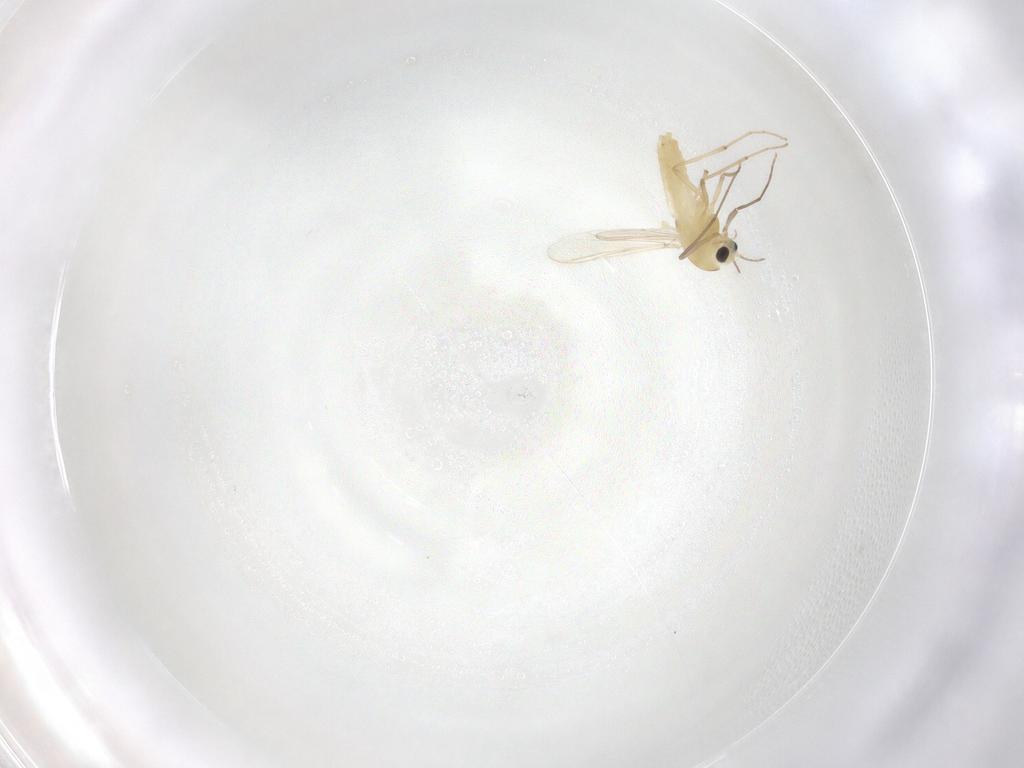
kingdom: Animalia
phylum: Arthropoda
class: Insecta
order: Diptera
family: Chironomidae
